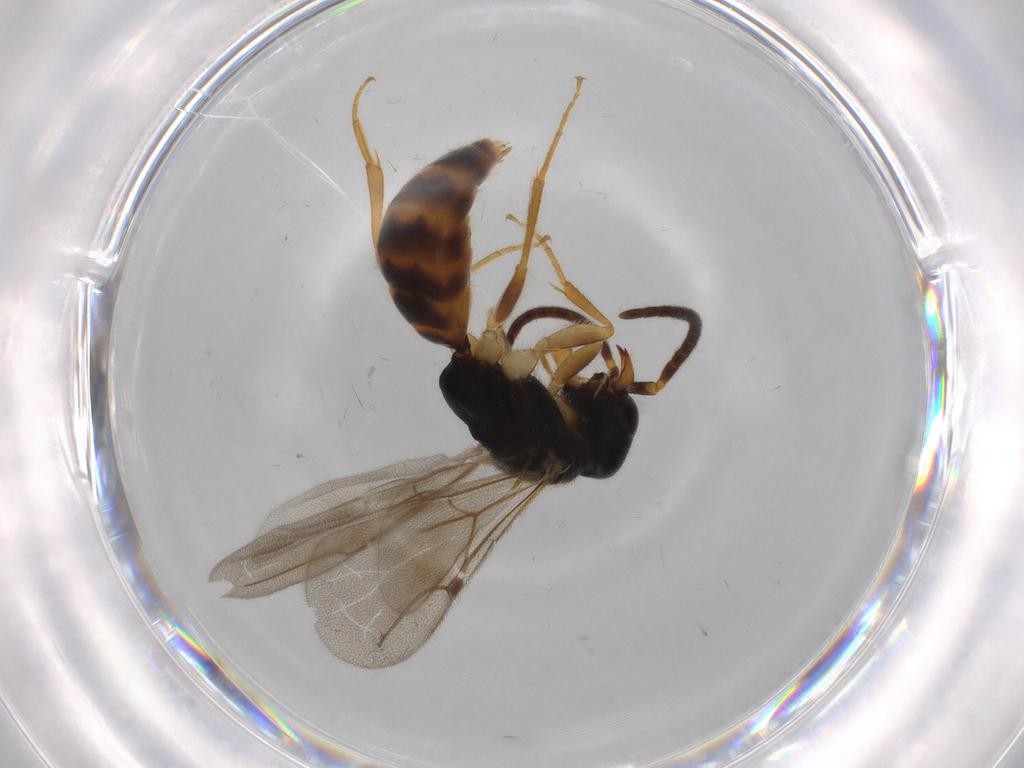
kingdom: Animalia
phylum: Arthropoda
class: Insecta
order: Hymenoptera
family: Bethylidae
